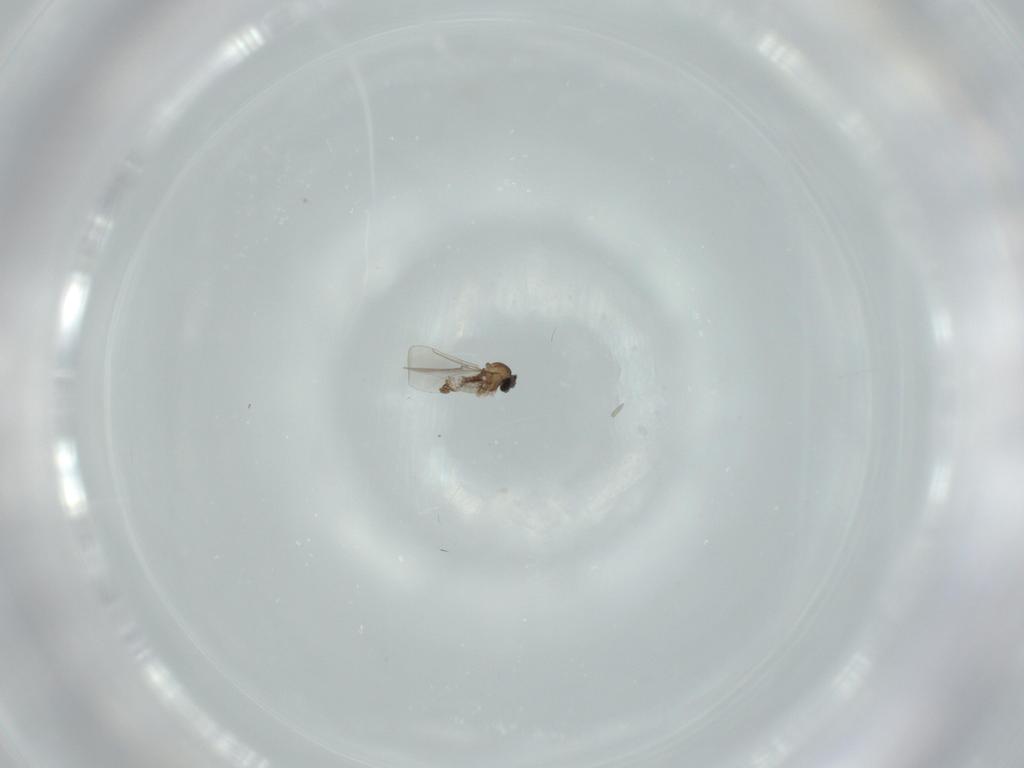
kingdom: Animalia
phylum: Arthropoda
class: Insecta
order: Diptera
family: Cecidomyiidae
